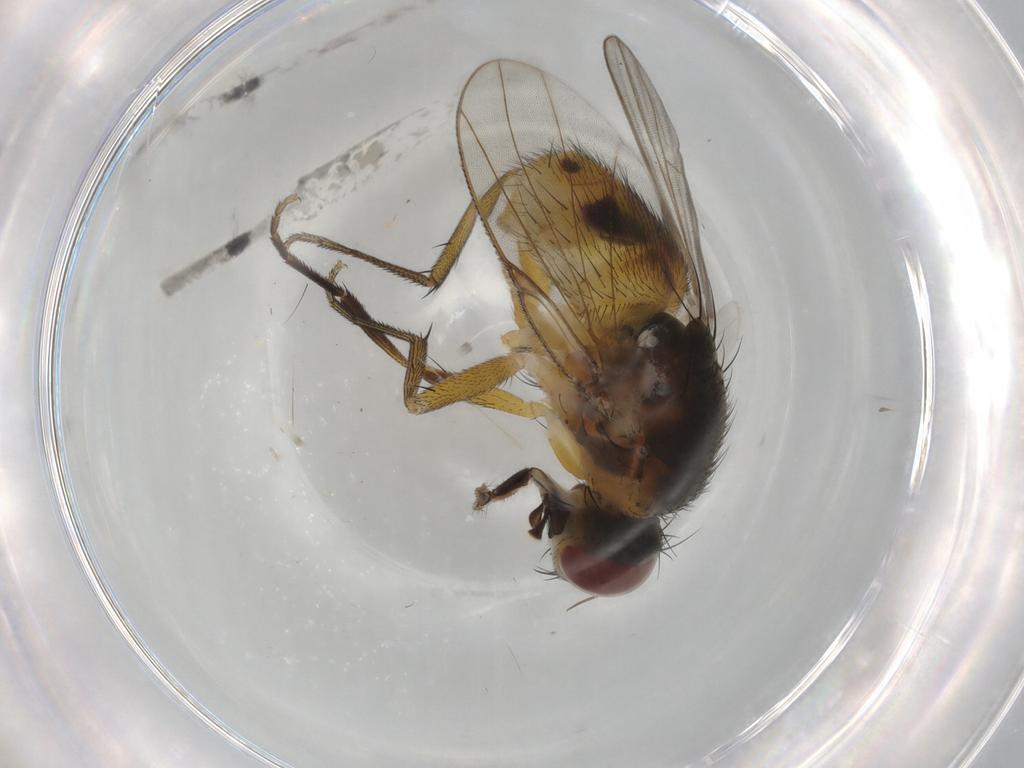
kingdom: Animalia
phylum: Arthropoda
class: Insecta
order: Diptera
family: Muscidae
